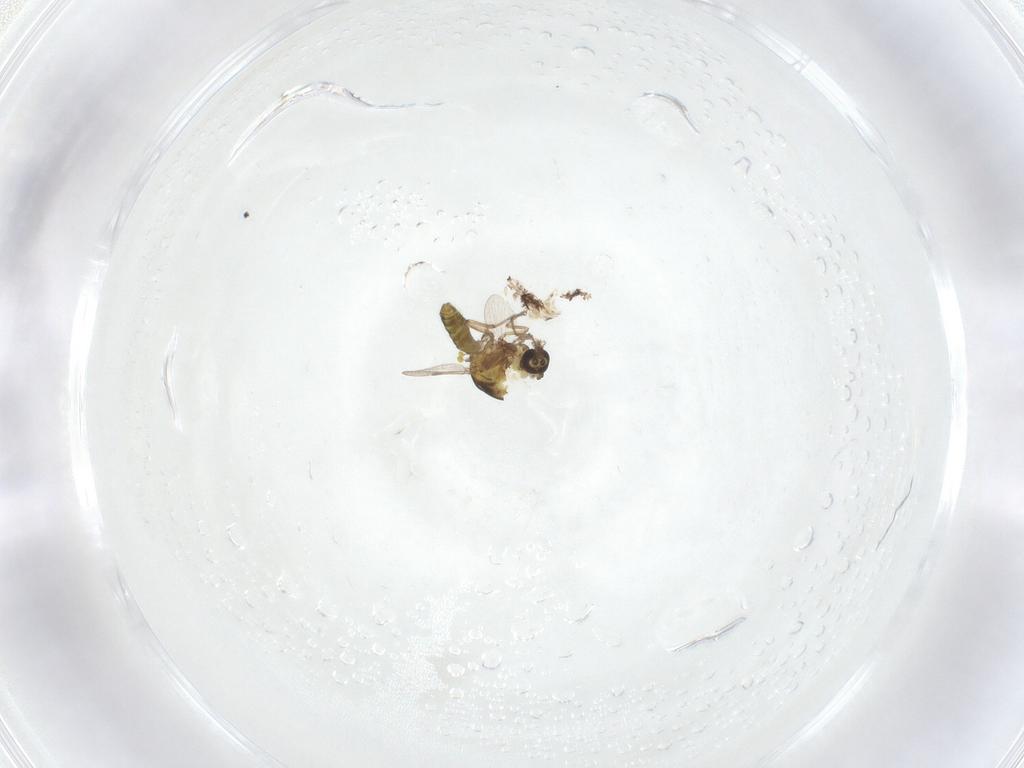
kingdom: Animalia
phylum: Arthropoda
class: Insecta
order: Diptera
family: Ceratopogonidae
